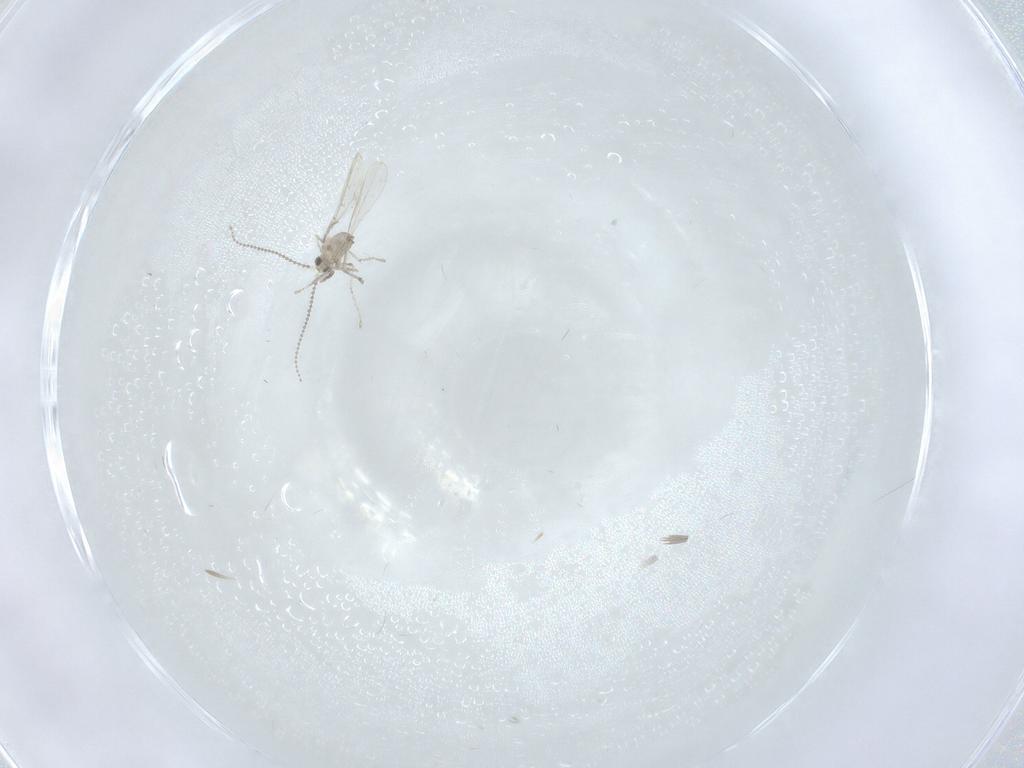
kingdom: Animalia
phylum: Arthropoda
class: Insecta
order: Diptera
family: Cecidomyiidae
